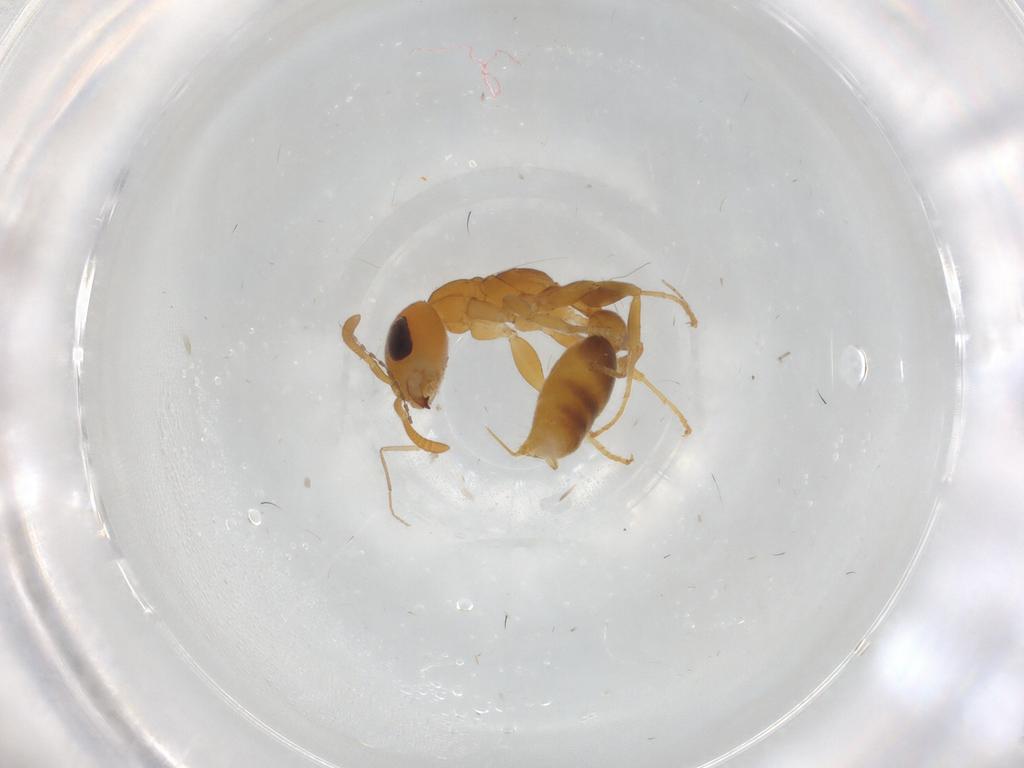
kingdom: Animalia
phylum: Arthropoda
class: Insecta
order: Hymenoptera
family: Formicidae
